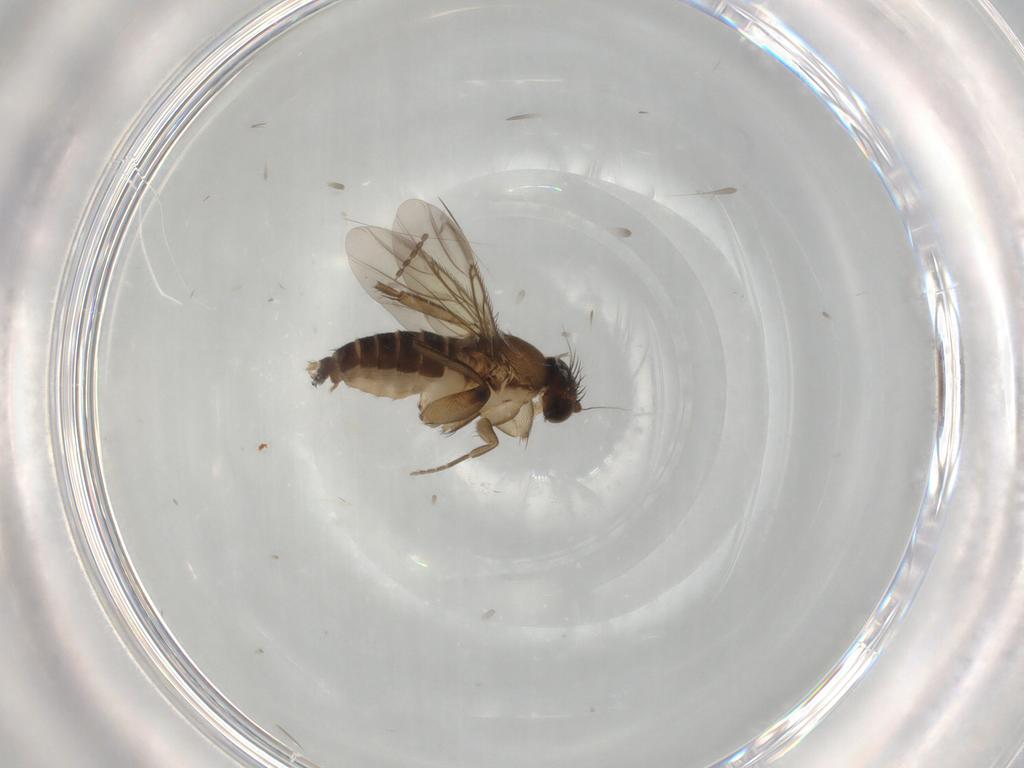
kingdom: Animalia
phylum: Arthropoda
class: Insecta
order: Diptera
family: Phoridae
